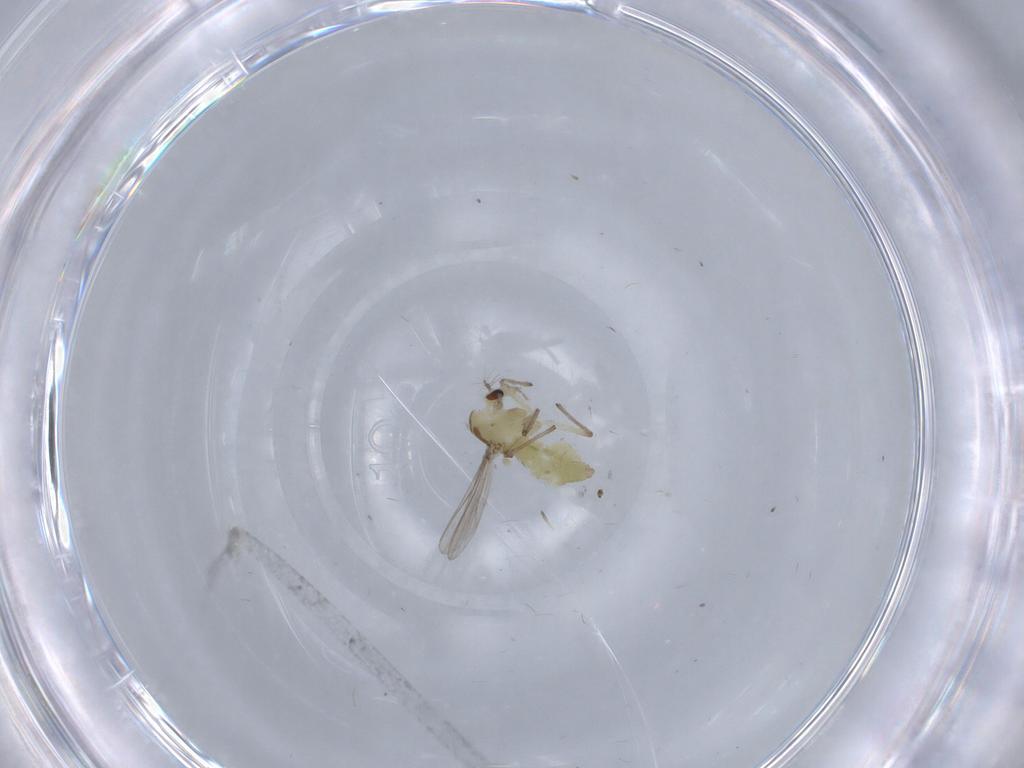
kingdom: Animalia
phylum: Arthropoda
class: Insecta
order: Diptera
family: Chironomidae
